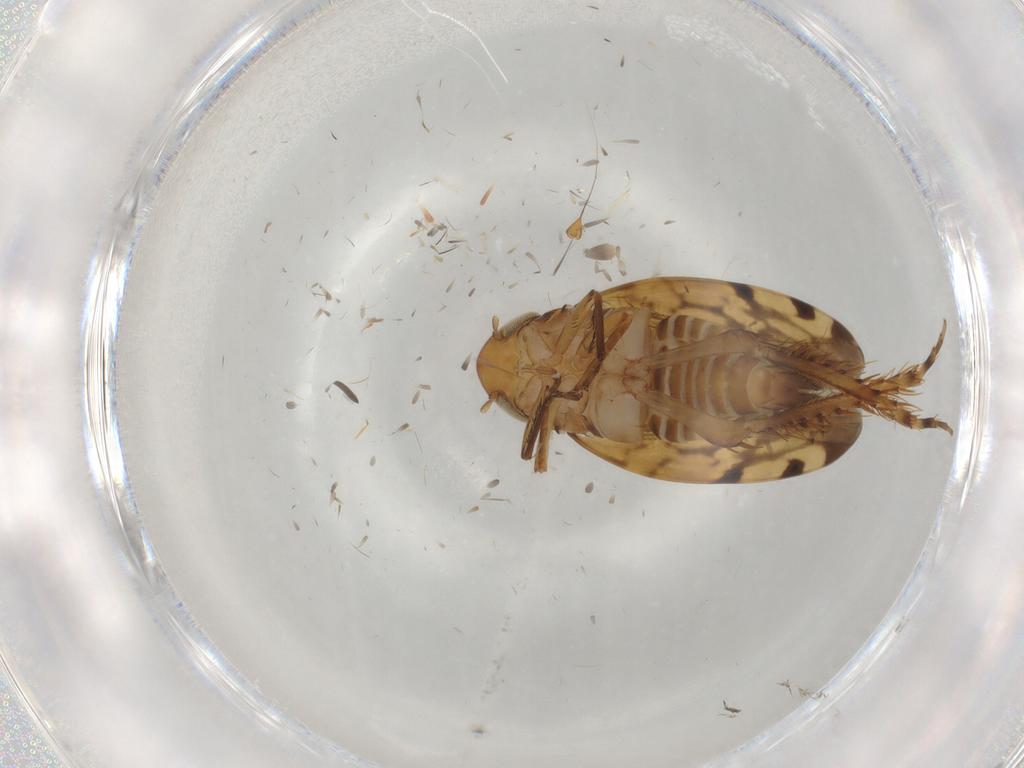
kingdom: Animalia
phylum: Arthropoda
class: Insecta
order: Hemiptera
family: Cercopidae
